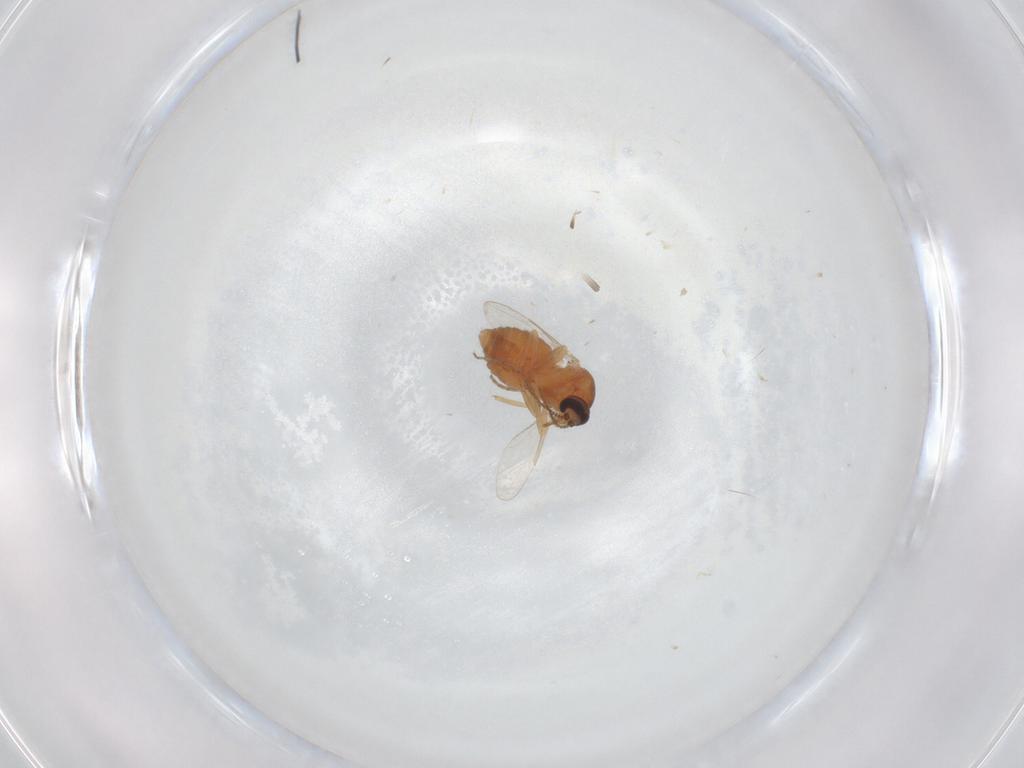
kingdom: Animalia
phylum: Arthropoda
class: Insecta
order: Diptera
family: Ceratopogonidae
